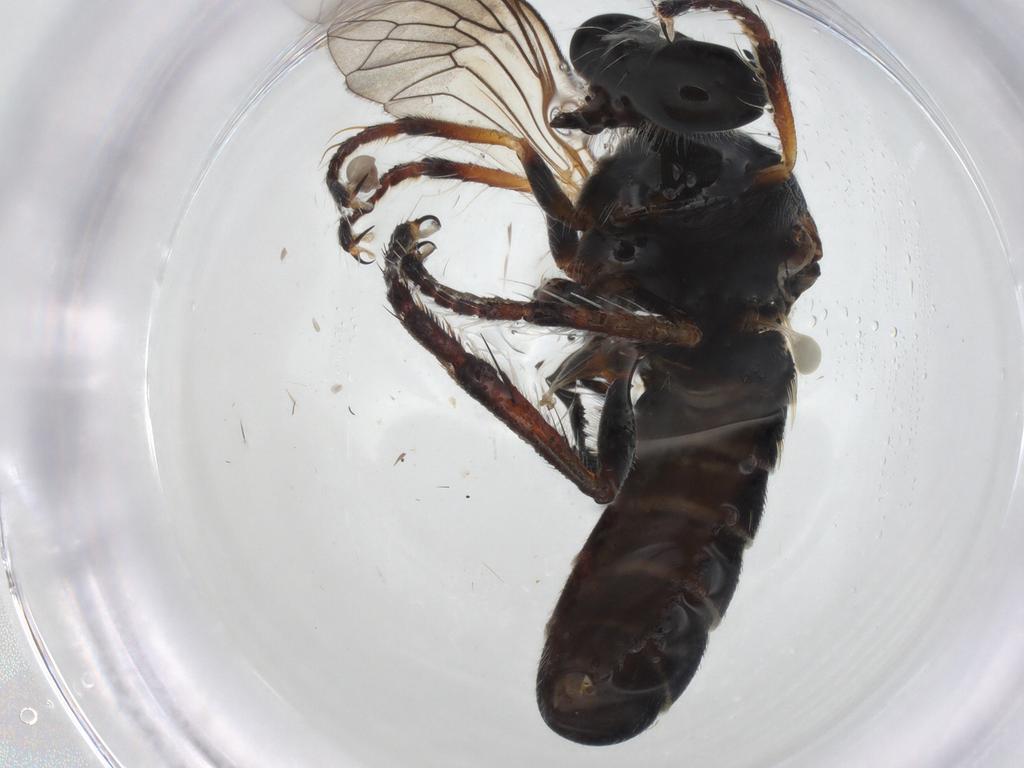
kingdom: Animalia
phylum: Arthropoda
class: Insecta
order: Diptera
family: Asilidae
